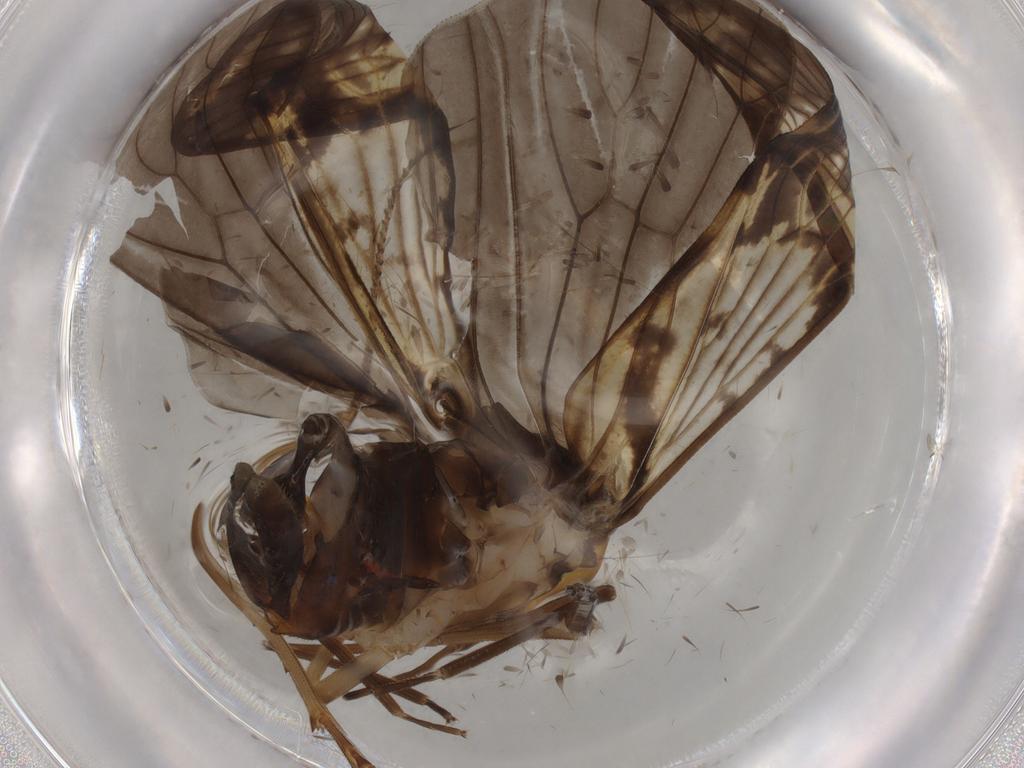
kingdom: Animalia
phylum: Arthropoda
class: Insecta
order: Hemiptera
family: Cixiidae
